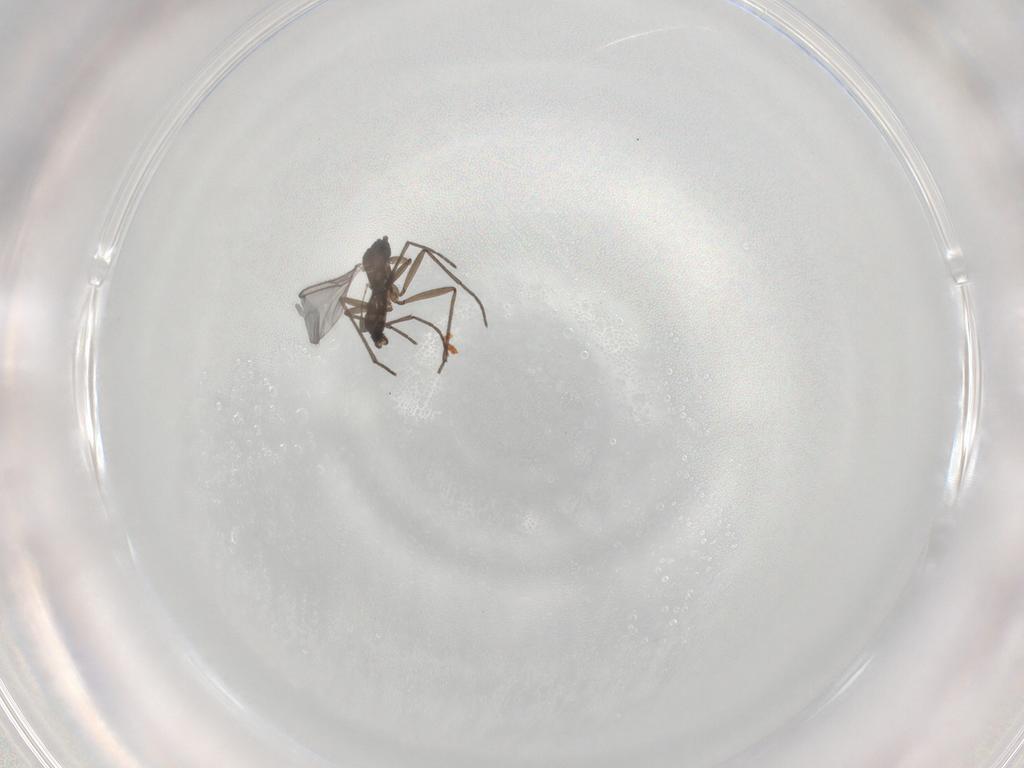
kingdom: Animalia
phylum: Arthropoda
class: Insecta
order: Diptera
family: Sciaridae
